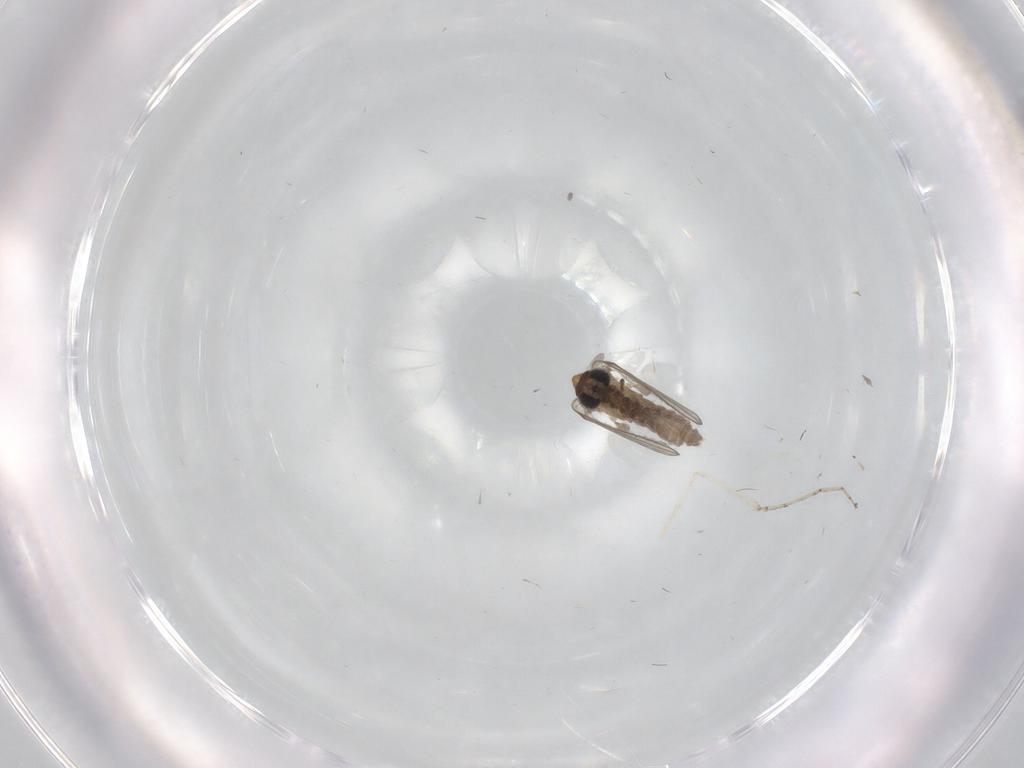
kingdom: Animalia
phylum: Arthropoda
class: Insecta
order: Diptera
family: Cecidomyiidae
